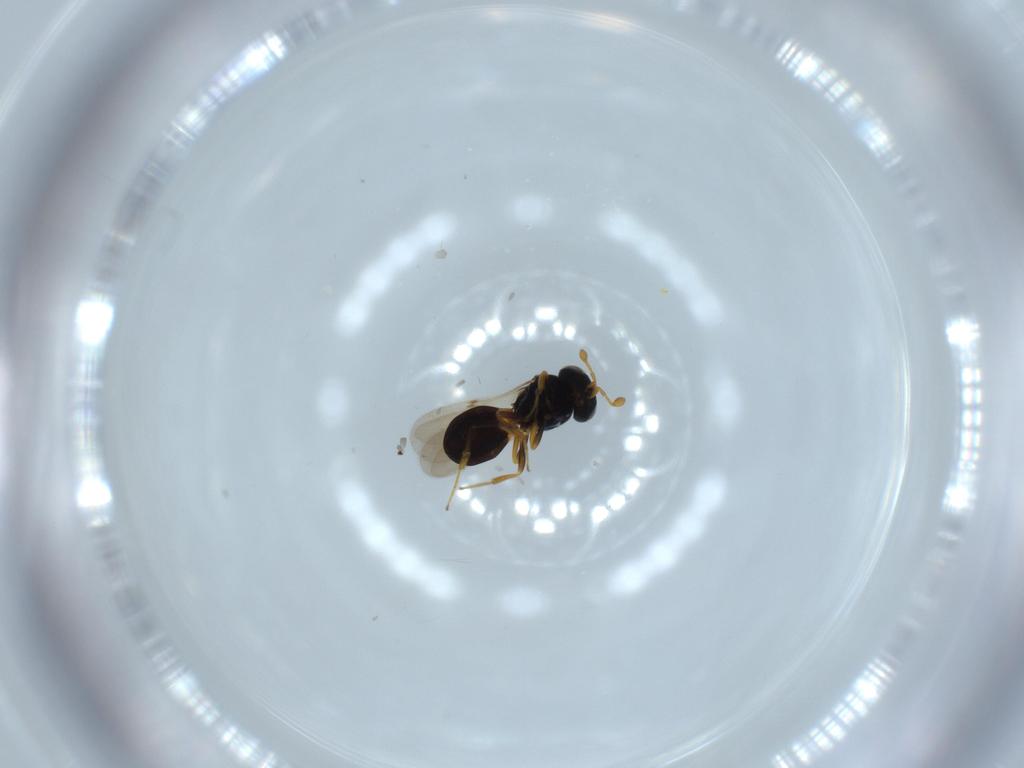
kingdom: Animalia
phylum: Arthropoda
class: Insecta
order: Hymenoptera
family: Scelionidae
